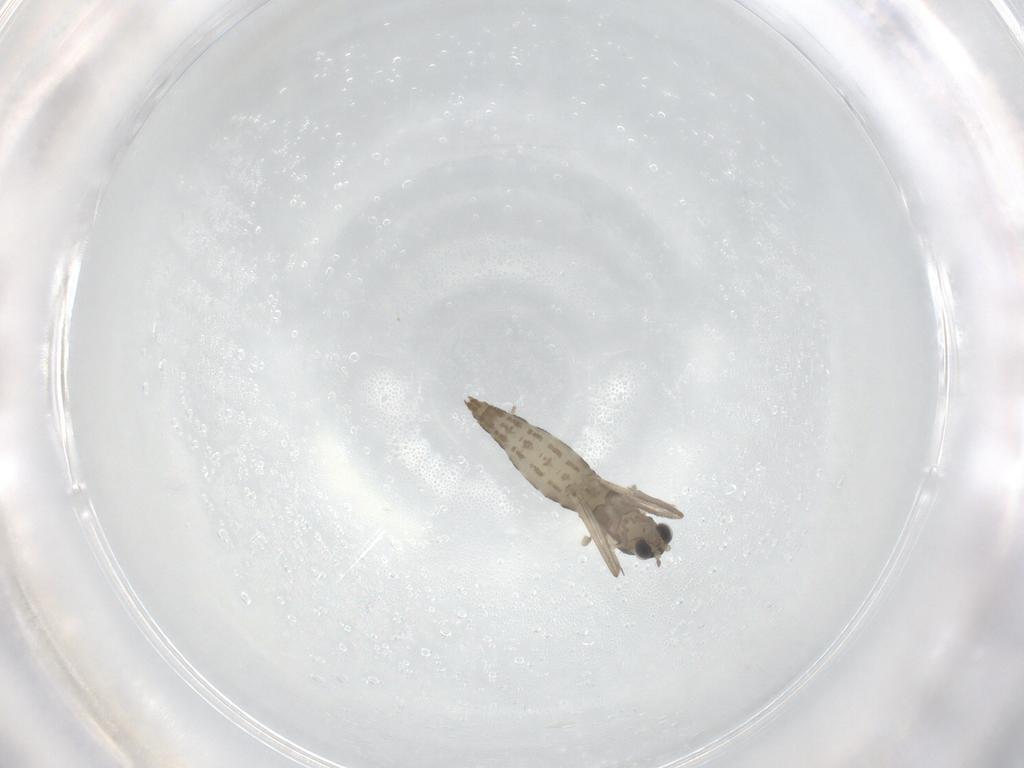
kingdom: Animalia
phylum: Arthropoda
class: Insecta
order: Diptera
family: Cecidomyiidae
